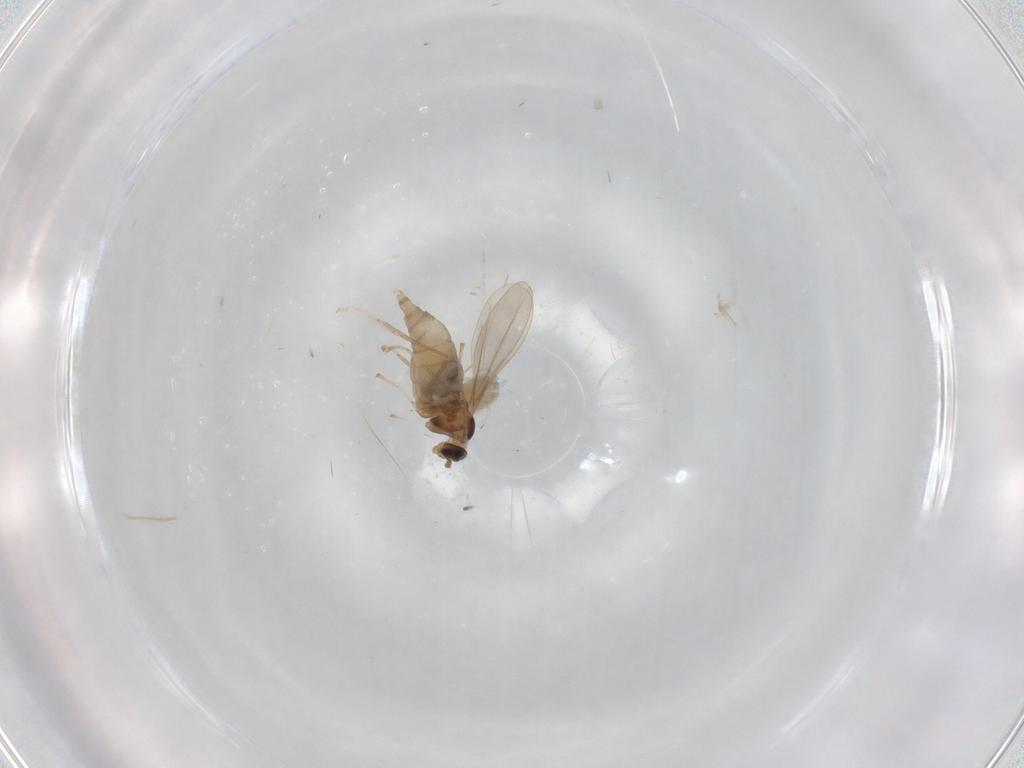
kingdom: Animalia
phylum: Arthropoda
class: Insecta
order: Diptera
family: Cecidomyiidae
